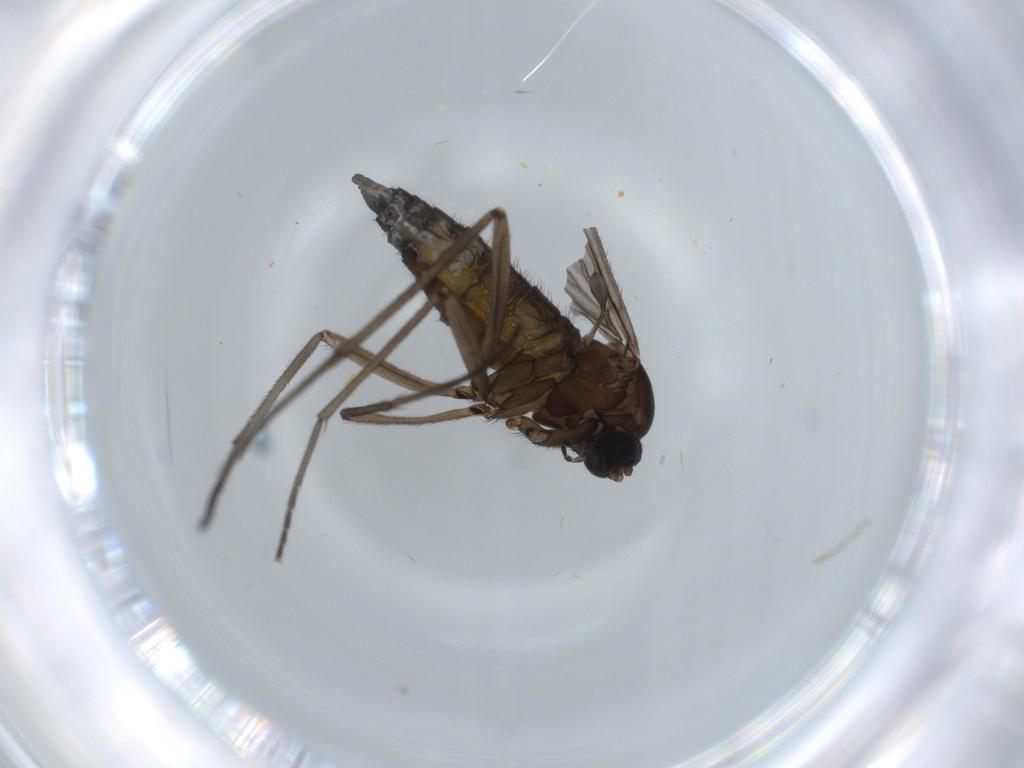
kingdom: Animalia
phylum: Arthropoda
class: Insecta
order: Diptera
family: Sciaridae
